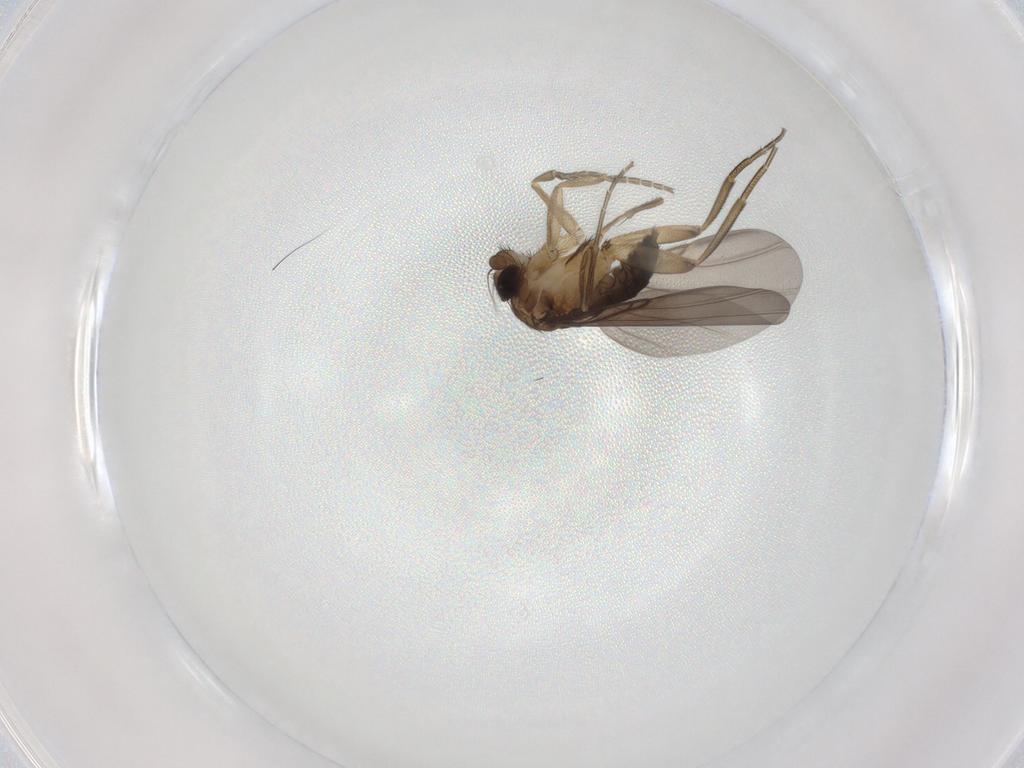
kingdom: Animalia
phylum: Arthropoda
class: Insecta
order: Diptera
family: Phoridae
